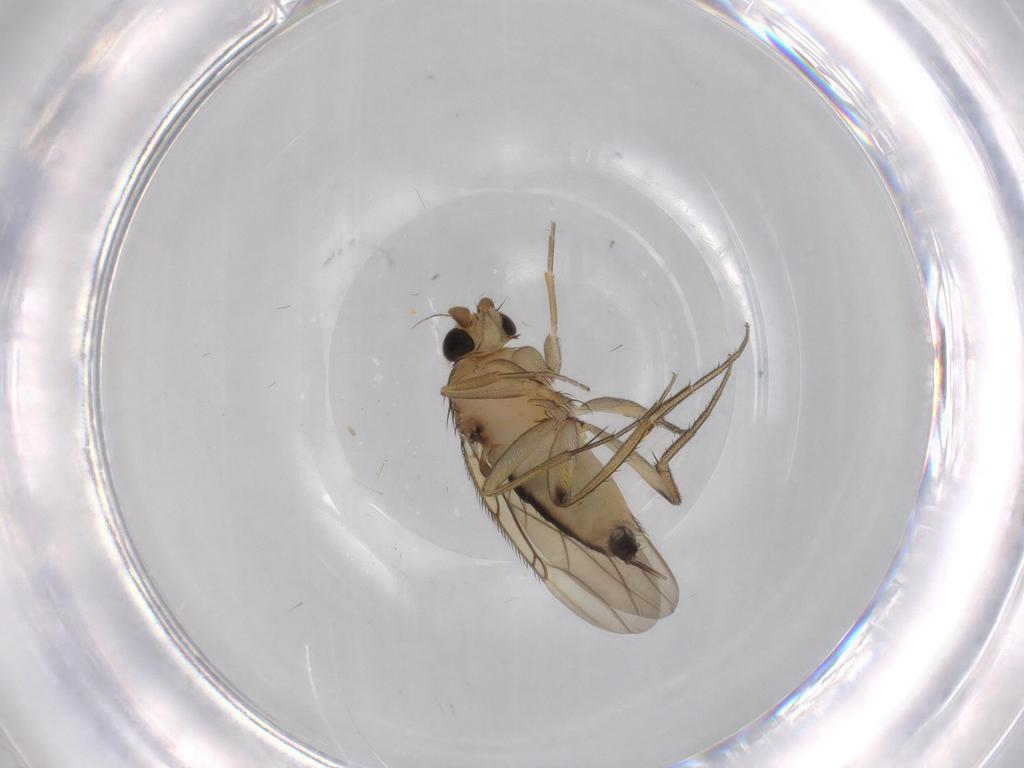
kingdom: Animalia
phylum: Arthropoda
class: Insecta
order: Diptera
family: Phoridae
